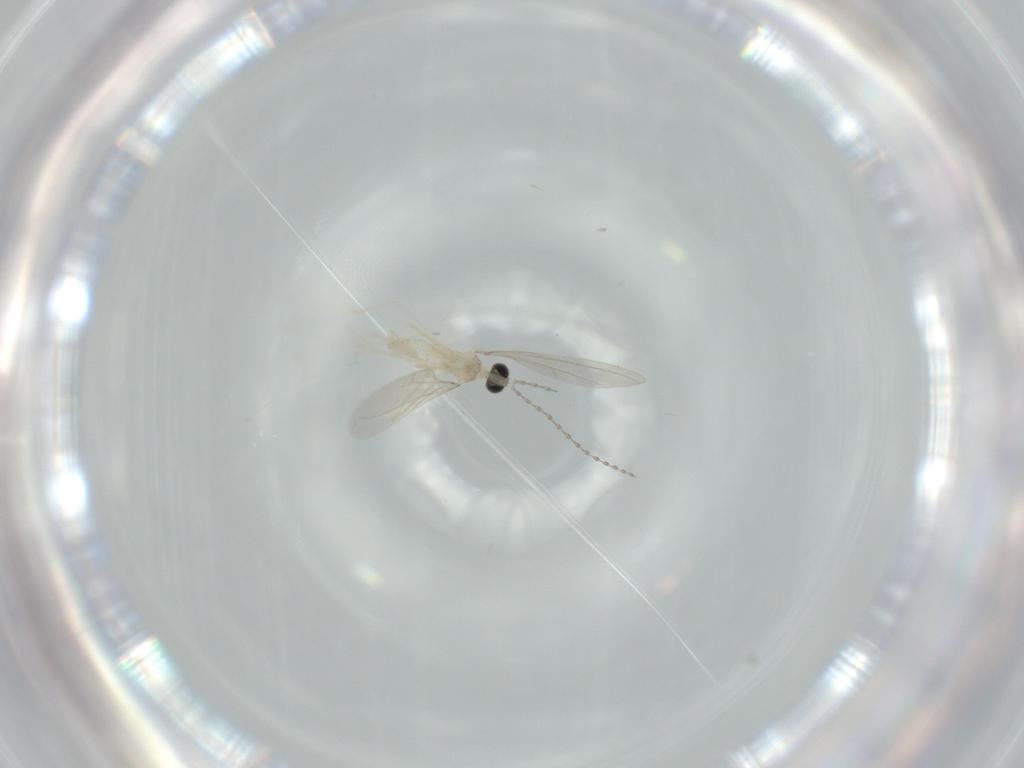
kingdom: Animalia
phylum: Arthropoda
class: Insecta
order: Diptera
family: Cecidomyiidae
